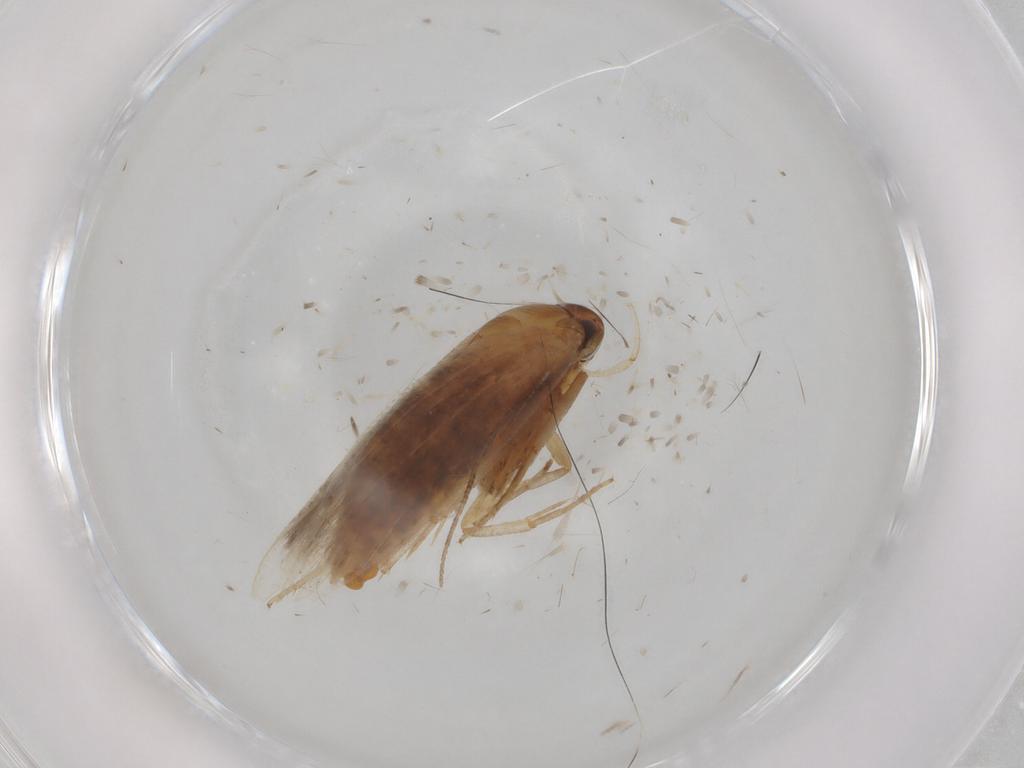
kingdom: Animalia
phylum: Arthropoda
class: Insecta
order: Lepidoptera
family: Cosmopterigidae
